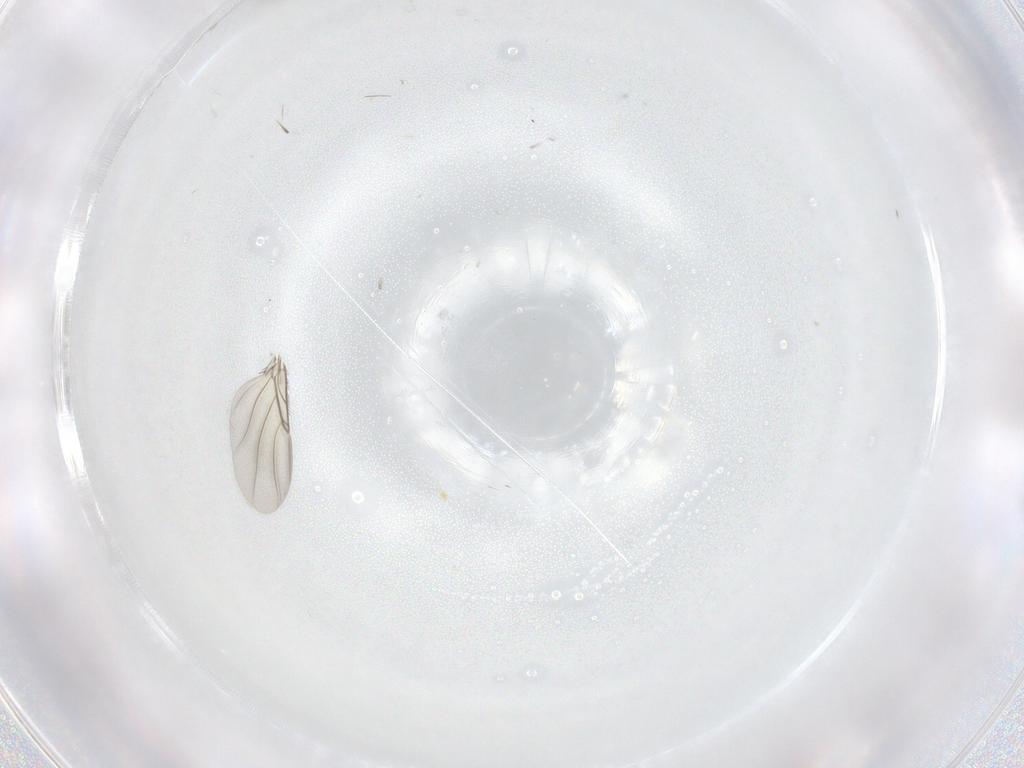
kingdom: Animalia
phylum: Arthropoda
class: Insecta
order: Diptera
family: Phoridae
